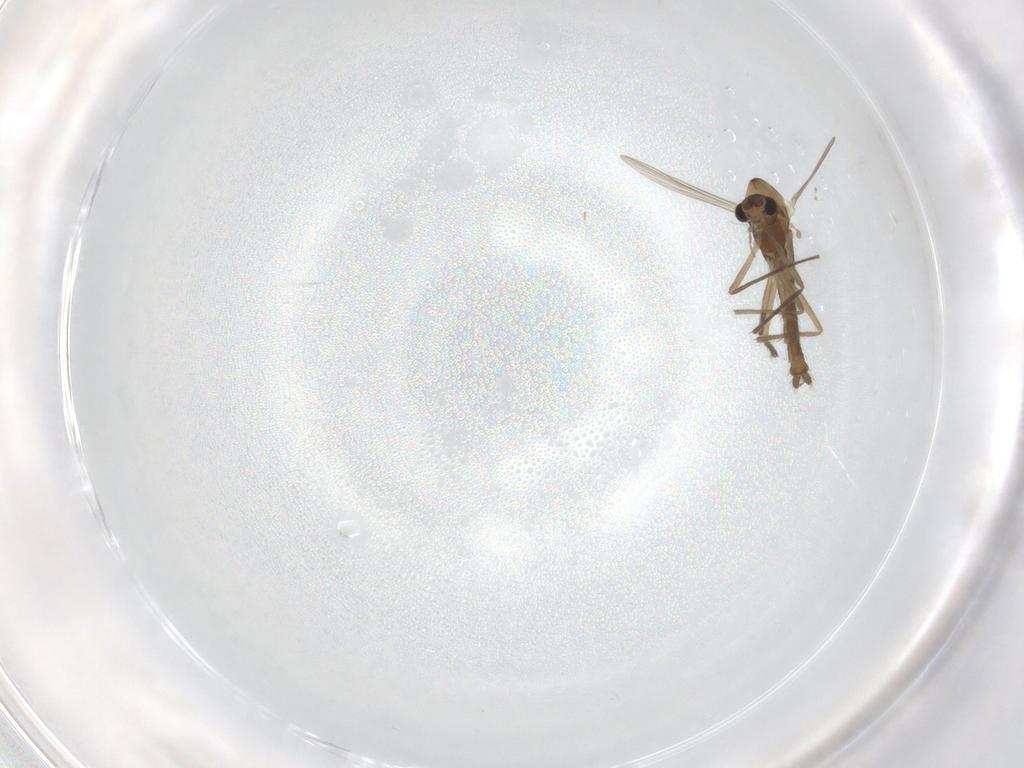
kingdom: Animalia
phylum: Arthropoda
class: Insecta
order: Diptera
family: Chironomidae
